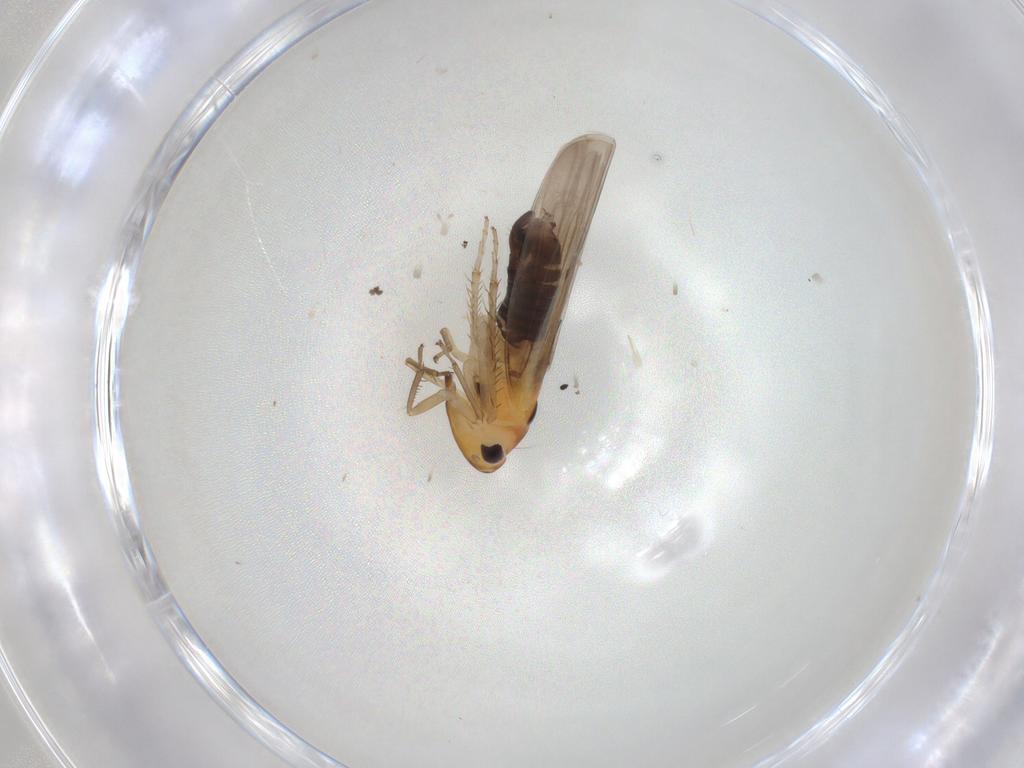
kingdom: Animalia
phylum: Arthropoda
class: Insecta
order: Hemiptera
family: Cicadellidae
